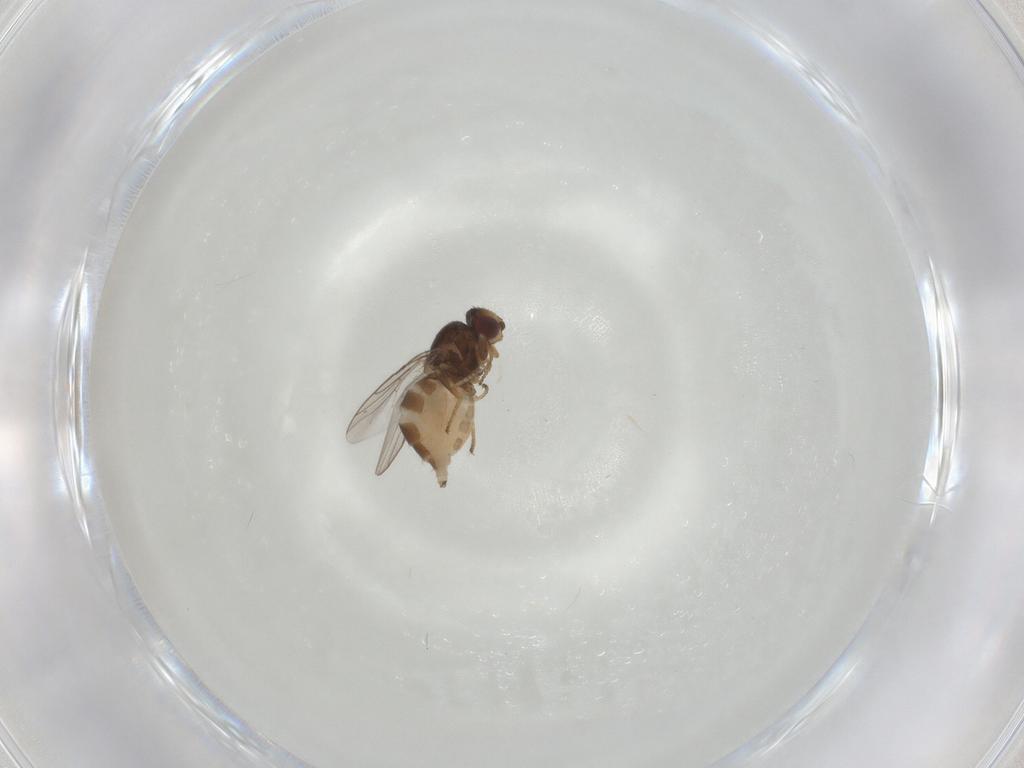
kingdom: Animalia
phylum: Arthropoda
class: Insecta
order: Diptera
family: Chloropidae
